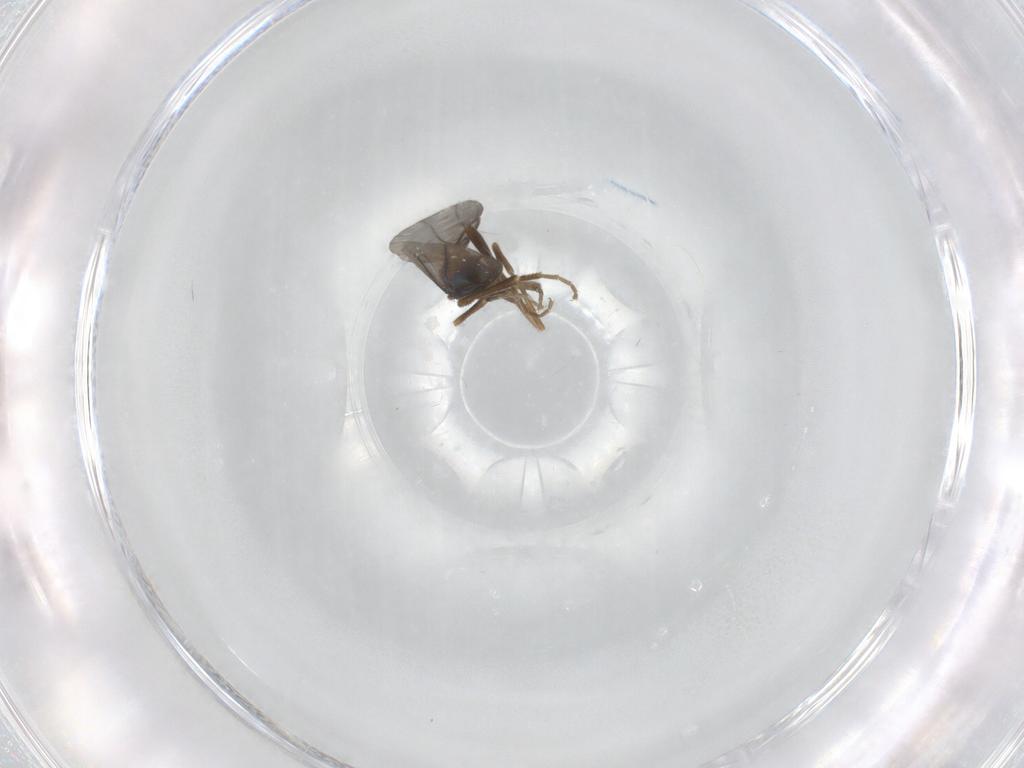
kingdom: Animalia
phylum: Arthropoda
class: Insecta
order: Diptera
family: Phoridae
